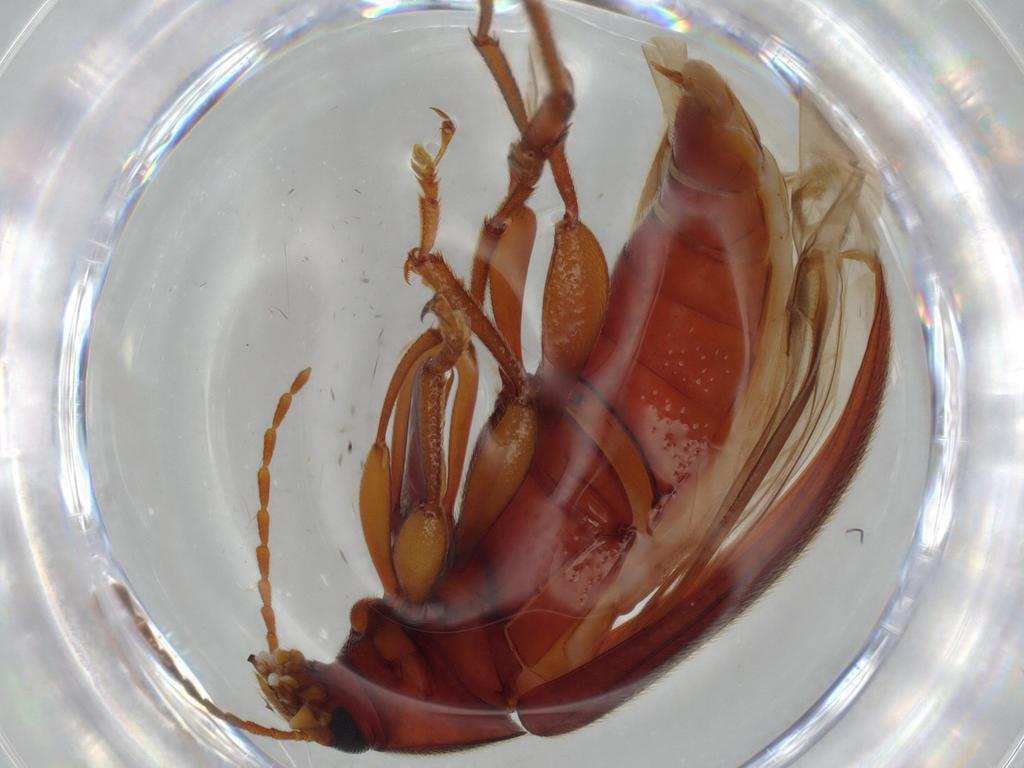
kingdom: Animalia
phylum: Arthropoda
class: Insecta
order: Coleoptera
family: Tenebrionidae
